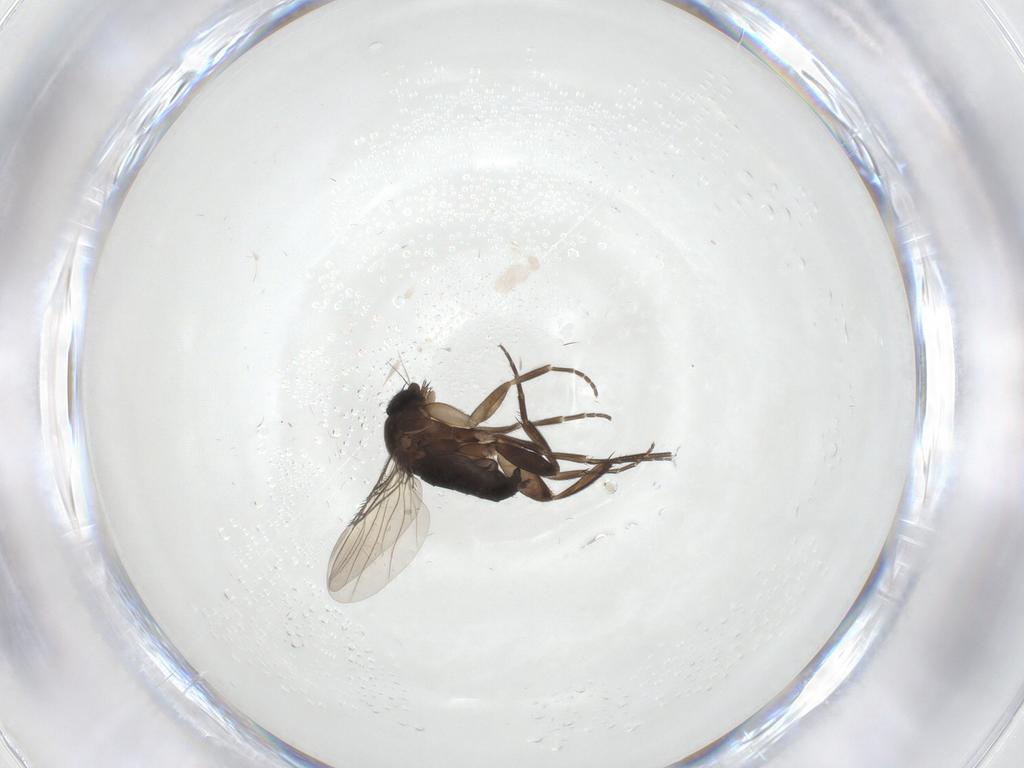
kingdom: Animalia
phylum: Arthropoda
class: Insecta
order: Diptera
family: Phoridae
